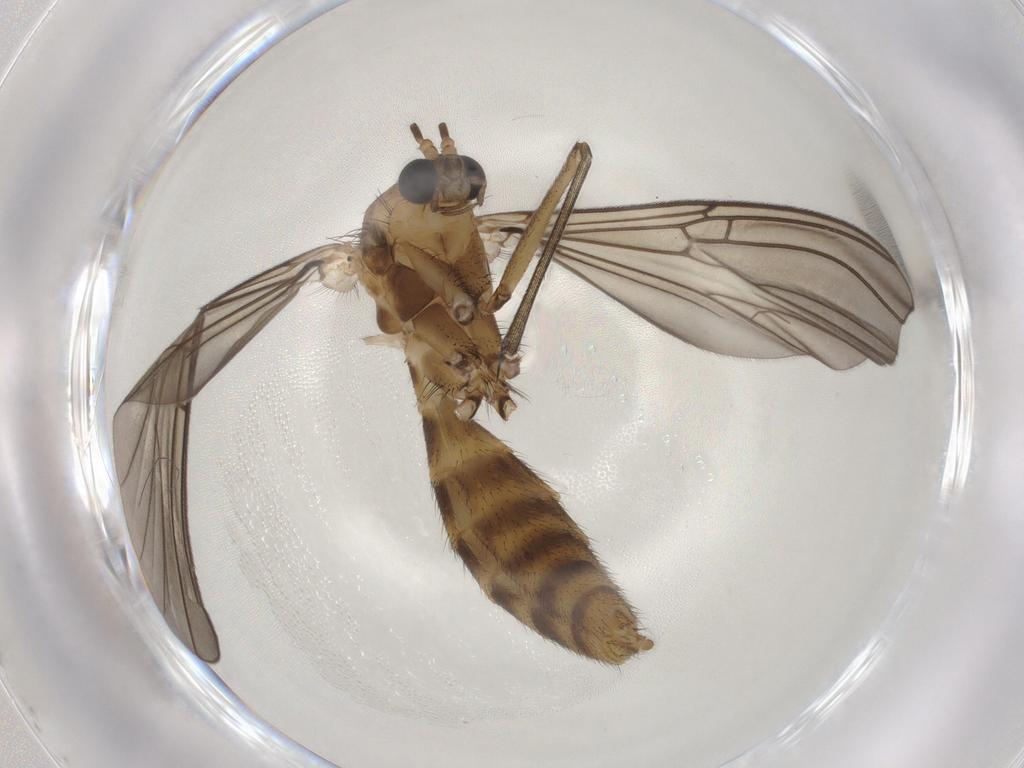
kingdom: Animalia
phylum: Arthropoda
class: Insecta
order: Diptera
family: Mycetophilidae
